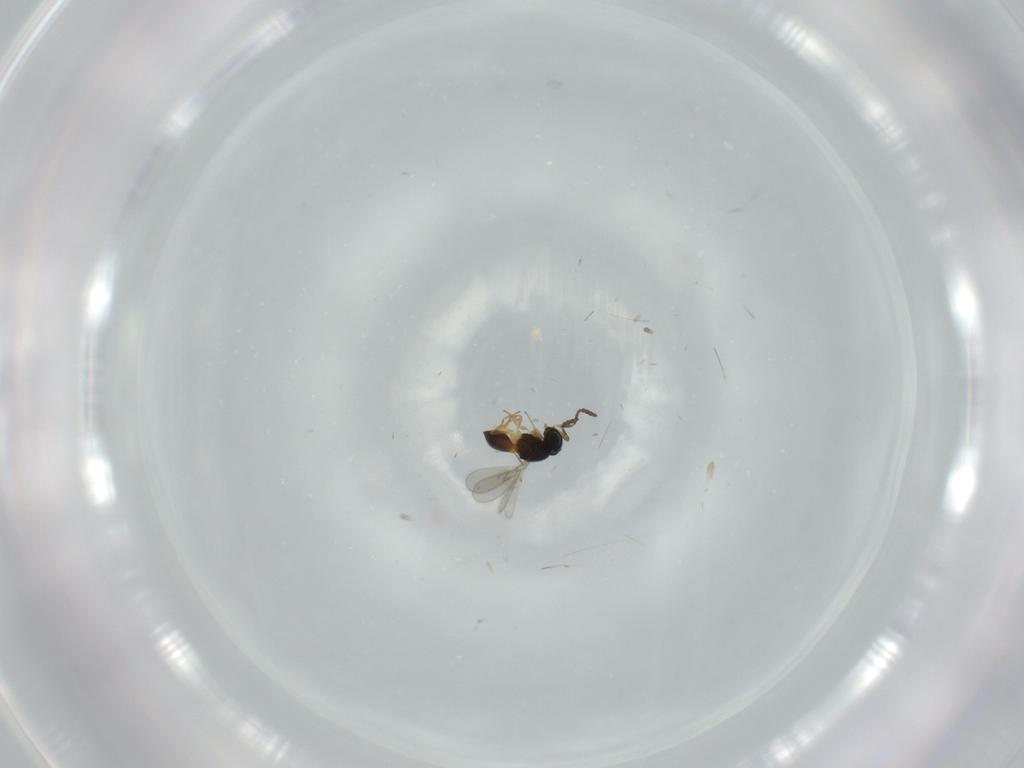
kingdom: Animalia
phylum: Arthropoda
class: Insecta
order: Hymenoptera
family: Scelionidae
